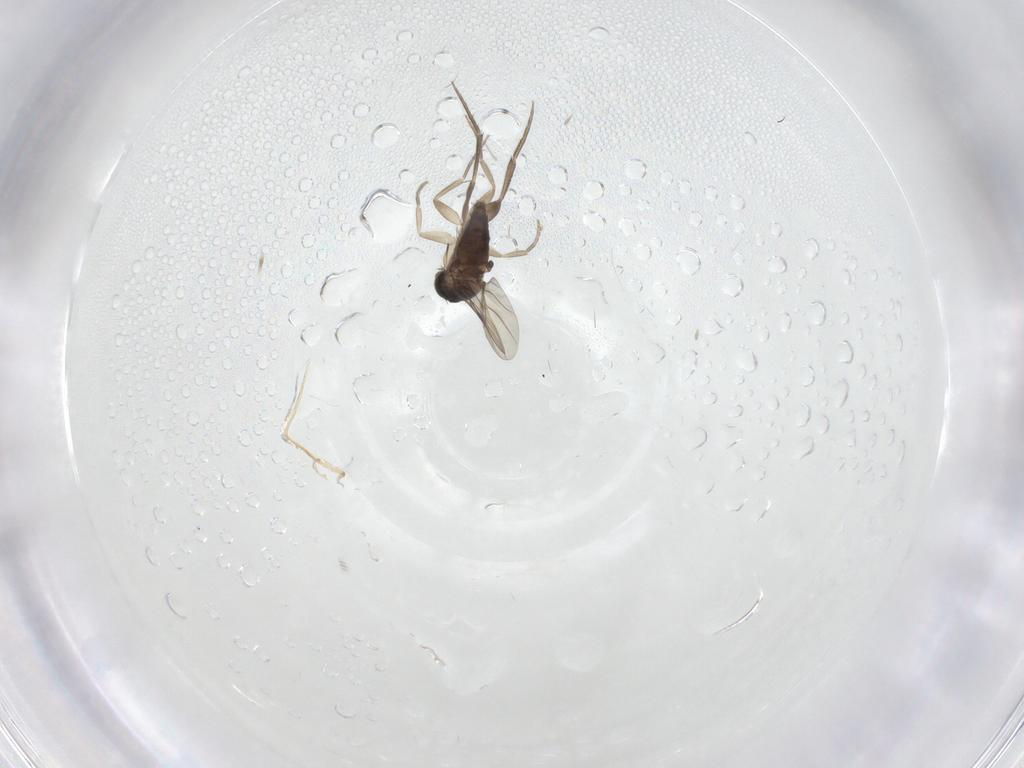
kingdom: Animalia
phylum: Arthropoda
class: Insecta
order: Diptera
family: Phoridae
